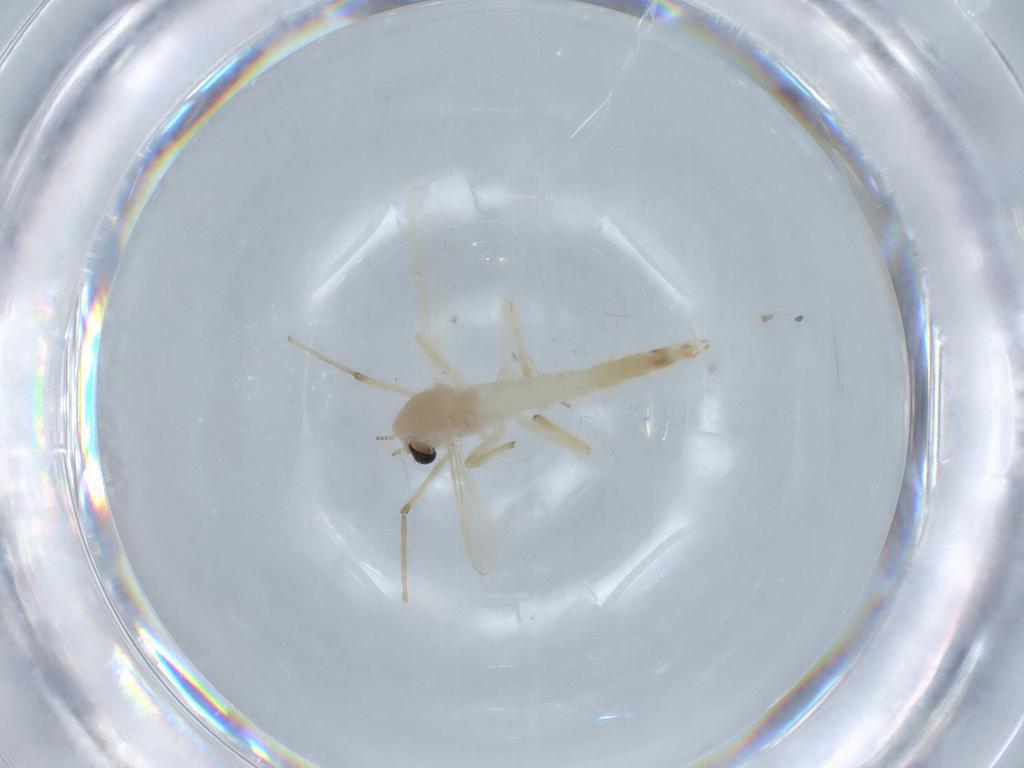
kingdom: Animalia
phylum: Arthropoda
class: Insecta
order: Diptera
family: Chironomidae
